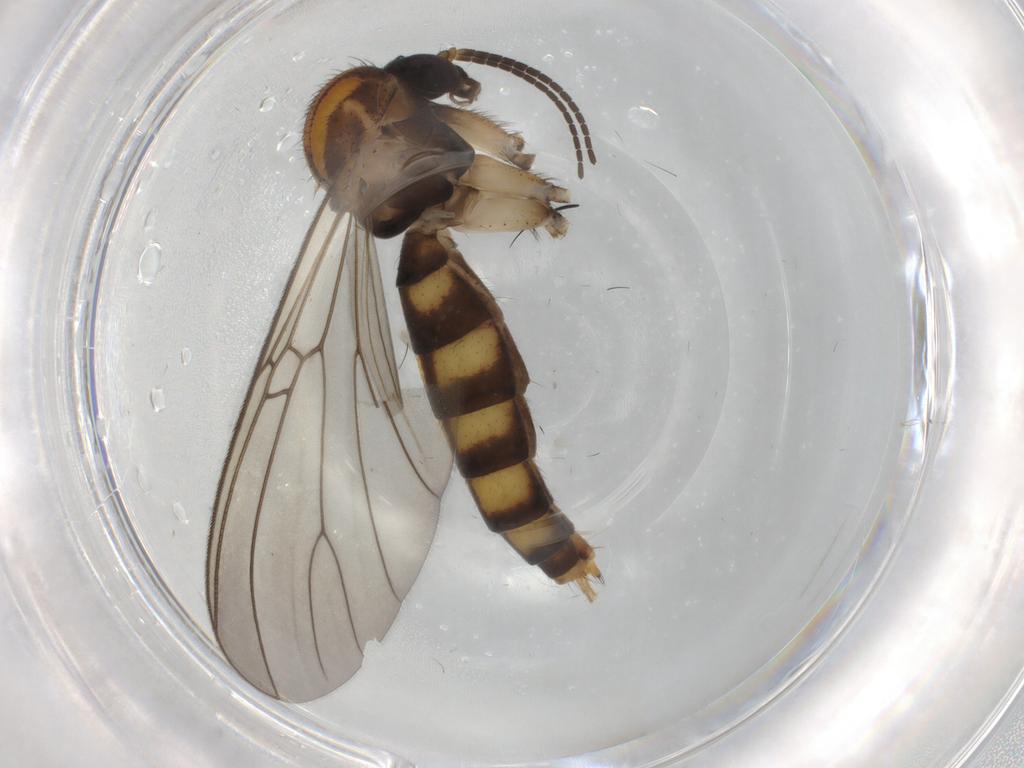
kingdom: Animalia
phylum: Arthropoda
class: Insecta
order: Diptera
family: Mycetophilidae
